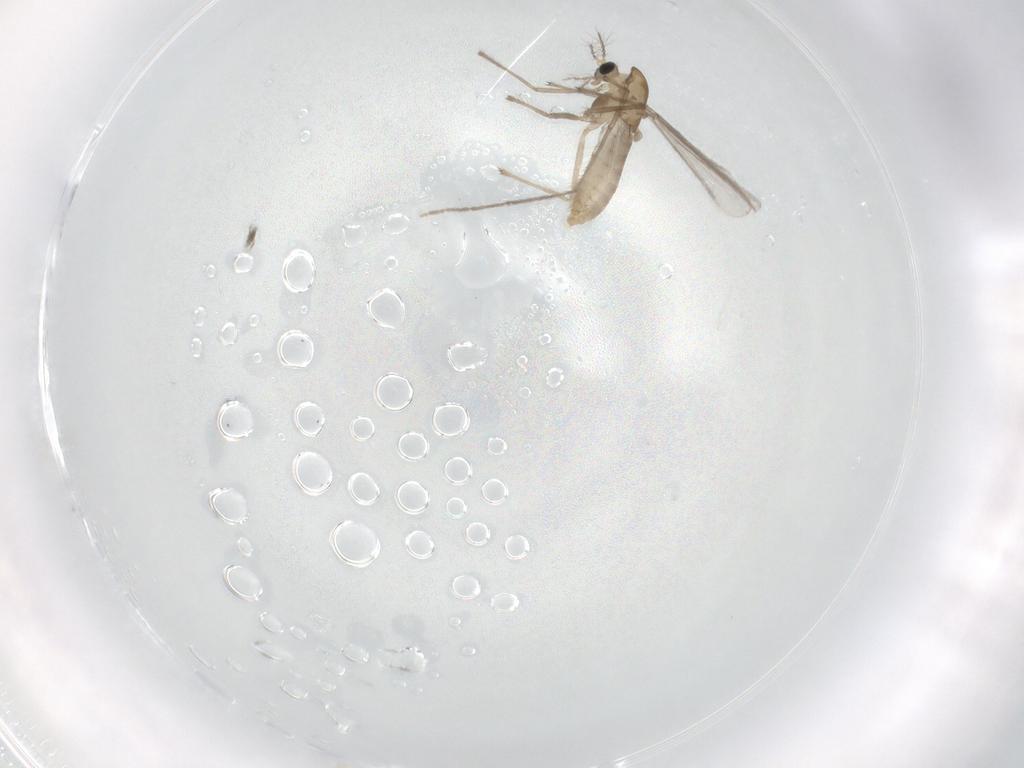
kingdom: Animalia
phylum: Arthropoda
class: Insecta
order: Diptera
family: Chironomidae
